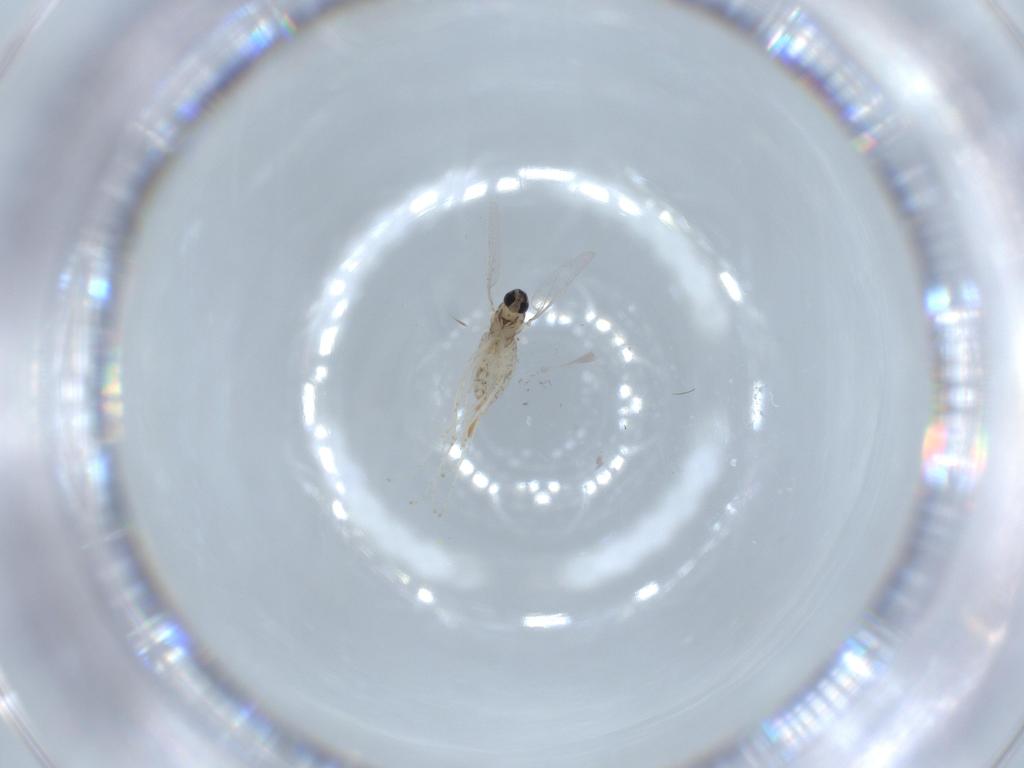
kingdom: Animalia
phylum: Arthropoda
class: Insecta
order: Diptera
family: Cecidomyiidae
